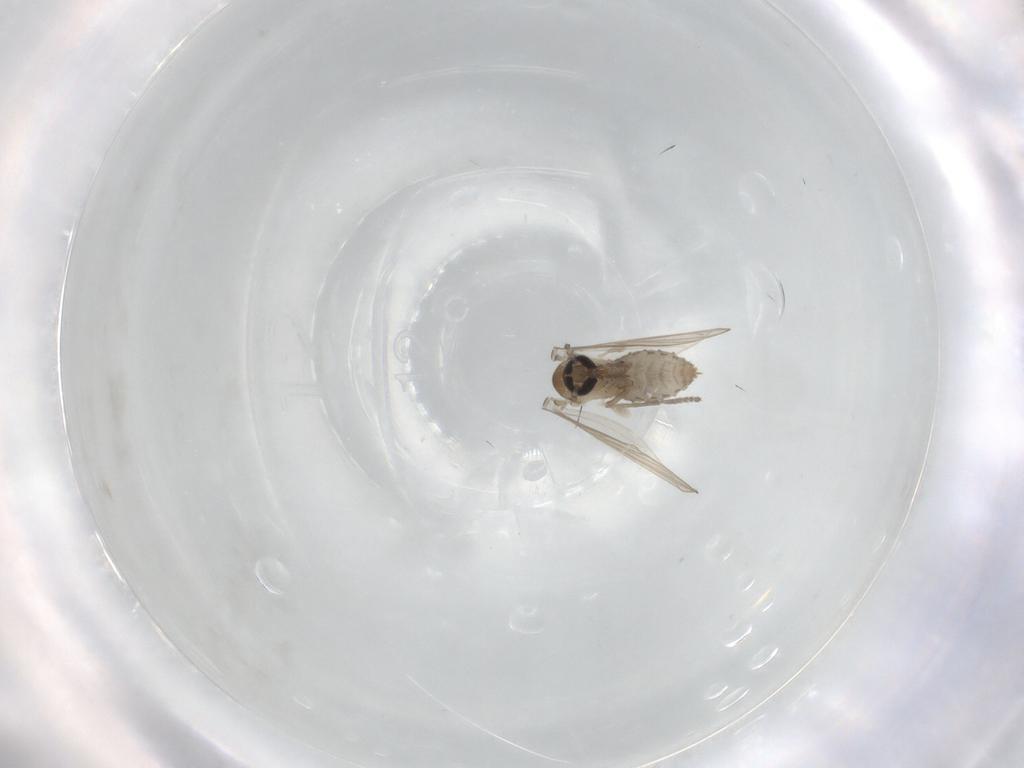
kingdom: Animalia
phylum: Arthropoda
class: Insecta
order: Diptera
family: Psychodidae
